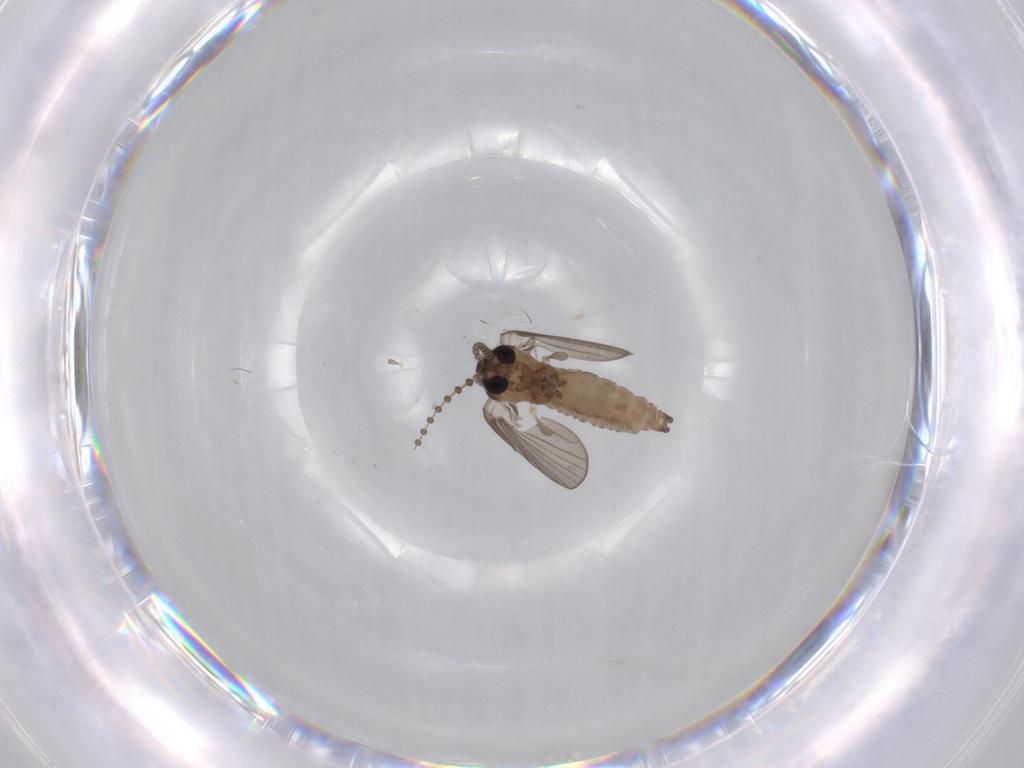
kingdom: Animalia
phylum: Arthropoda
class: Insecta
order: Diptera
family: Psychodidae
